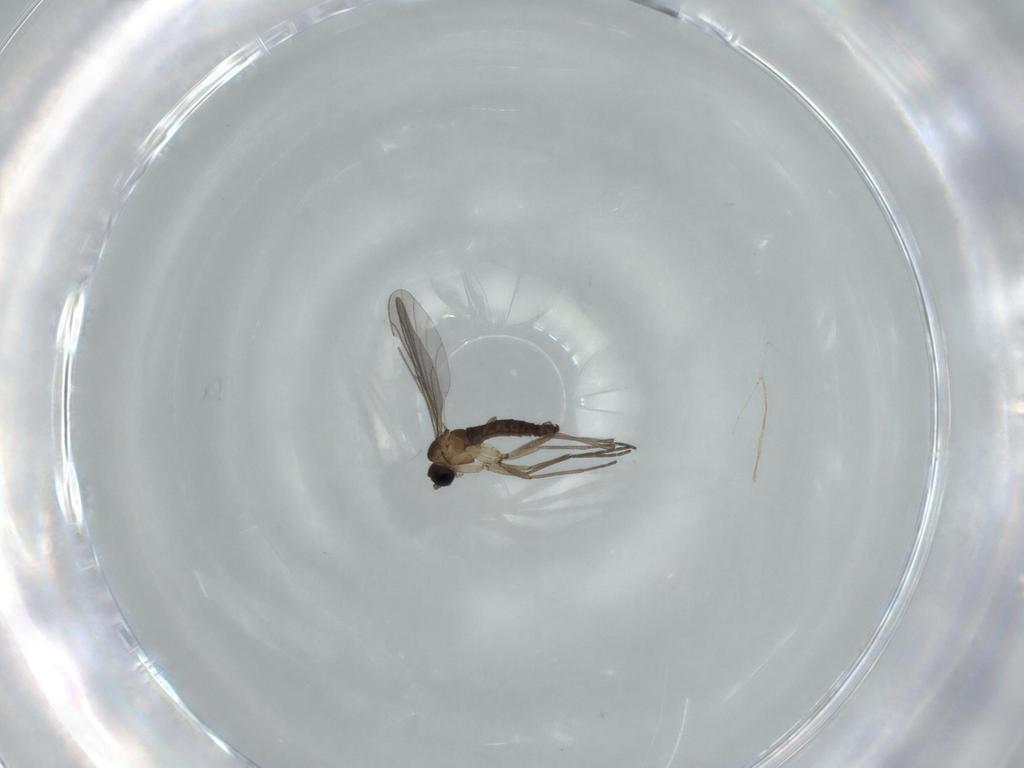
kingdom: Animalia
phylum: Arthropoda
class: Insecta
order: Diptera
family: Sciaridae
